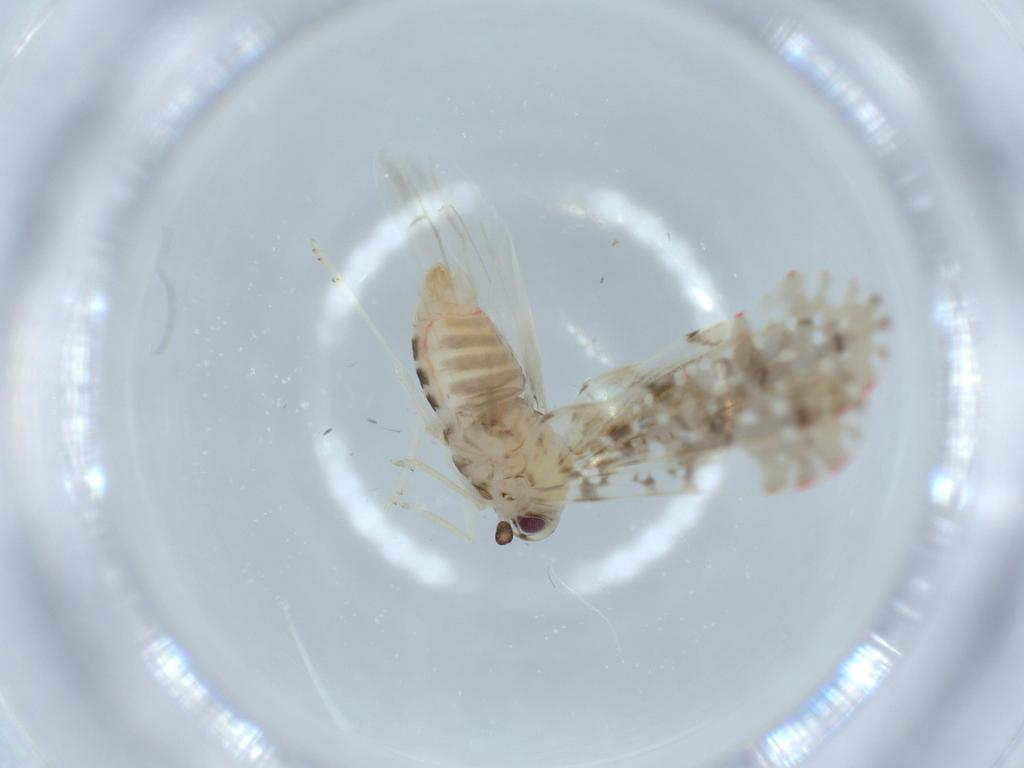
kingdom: Animalia
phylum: Arthropoda
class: Insecta
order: Hemiptera
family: Derbidae
